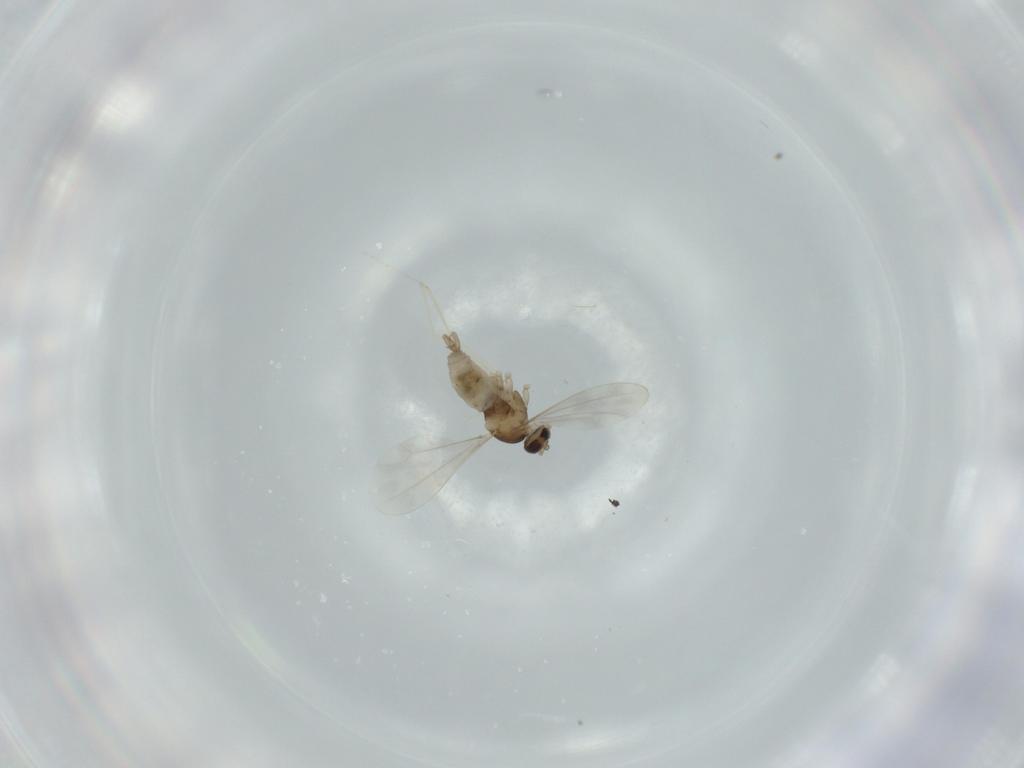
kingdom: Animalia
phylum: Arthropoda
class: Insecta
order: Diptera
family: Cecidomyiidae
